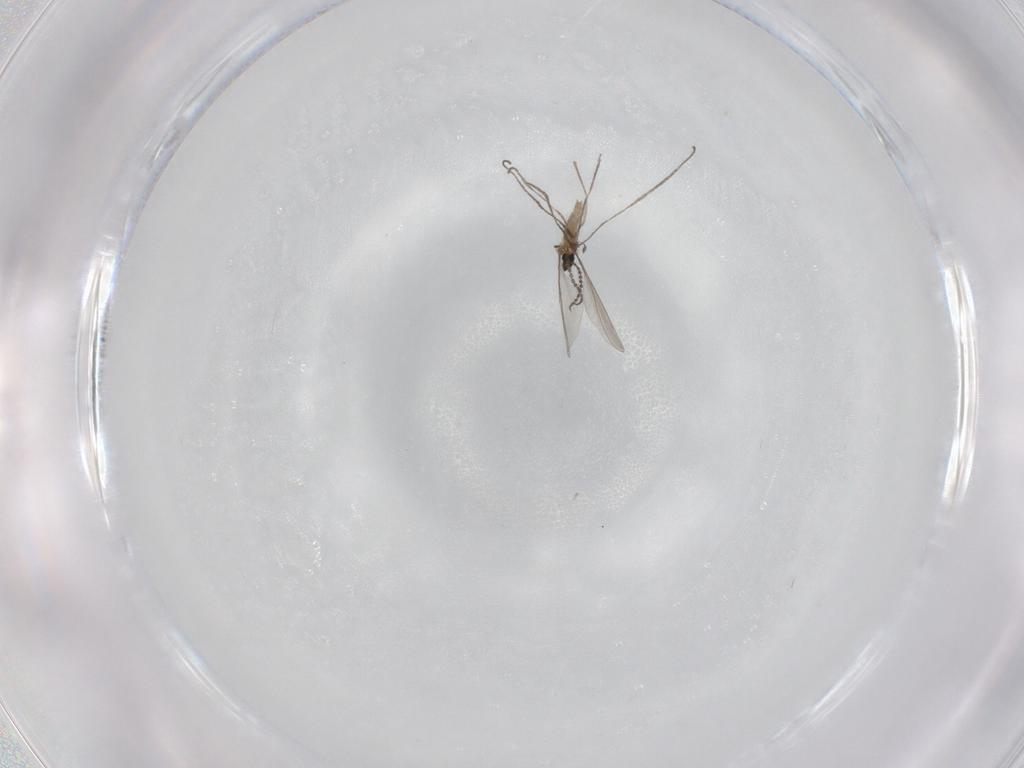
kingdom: Animalia
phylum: Arthropoda
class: Insecta
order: Diptera
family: Cecidomyiidae
